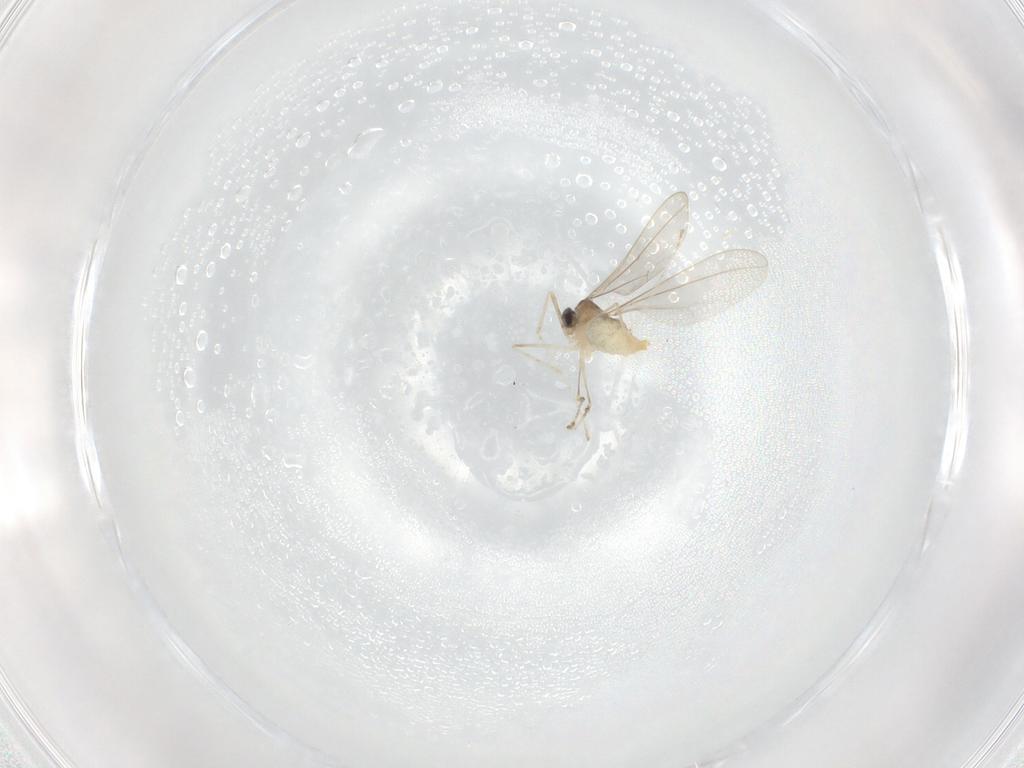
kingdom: Animalia
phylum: Arthropoda
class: Insecta
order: Diptera
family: Cecidomyiidae
